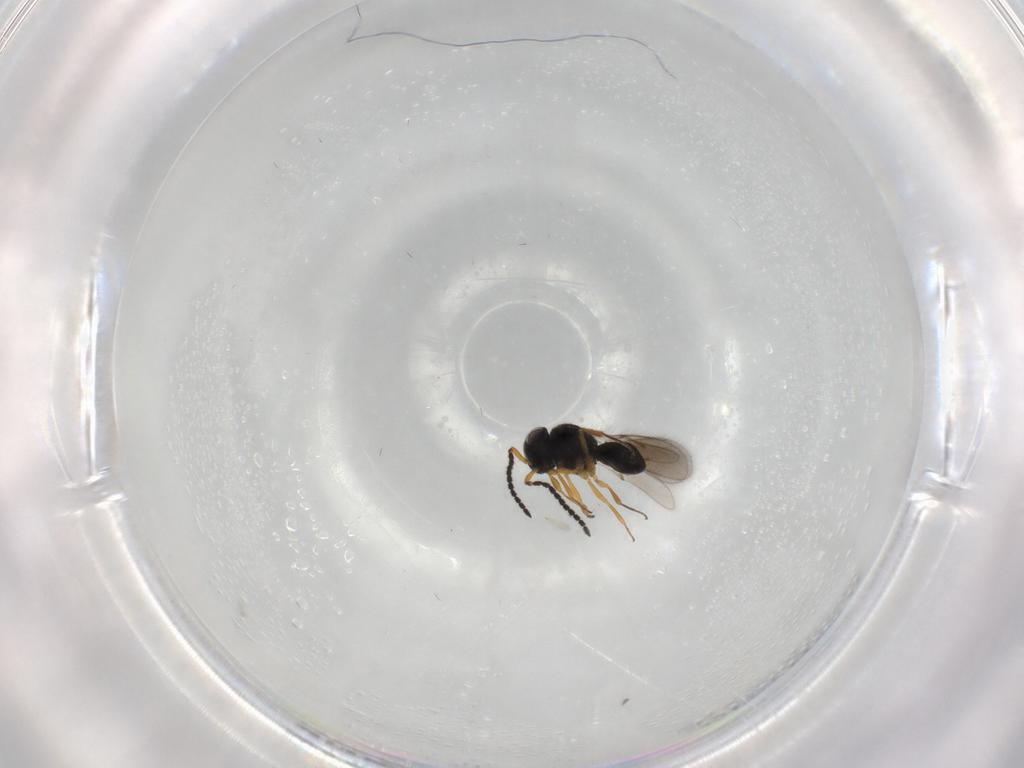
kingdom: Animalia
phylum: Arthropoda
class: Insecta
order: Hymenoptera
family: Scelionidae
